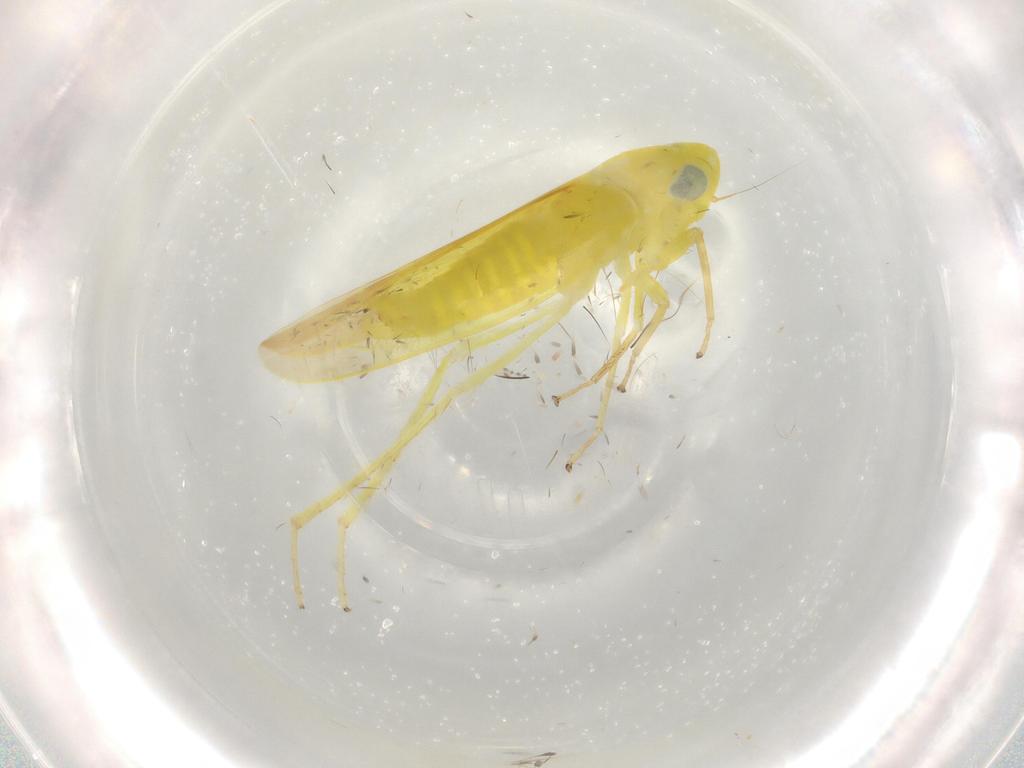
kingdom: Animalia
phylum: Arthropoda
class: Insecta
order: Hemiptera
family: Cicadellidae
